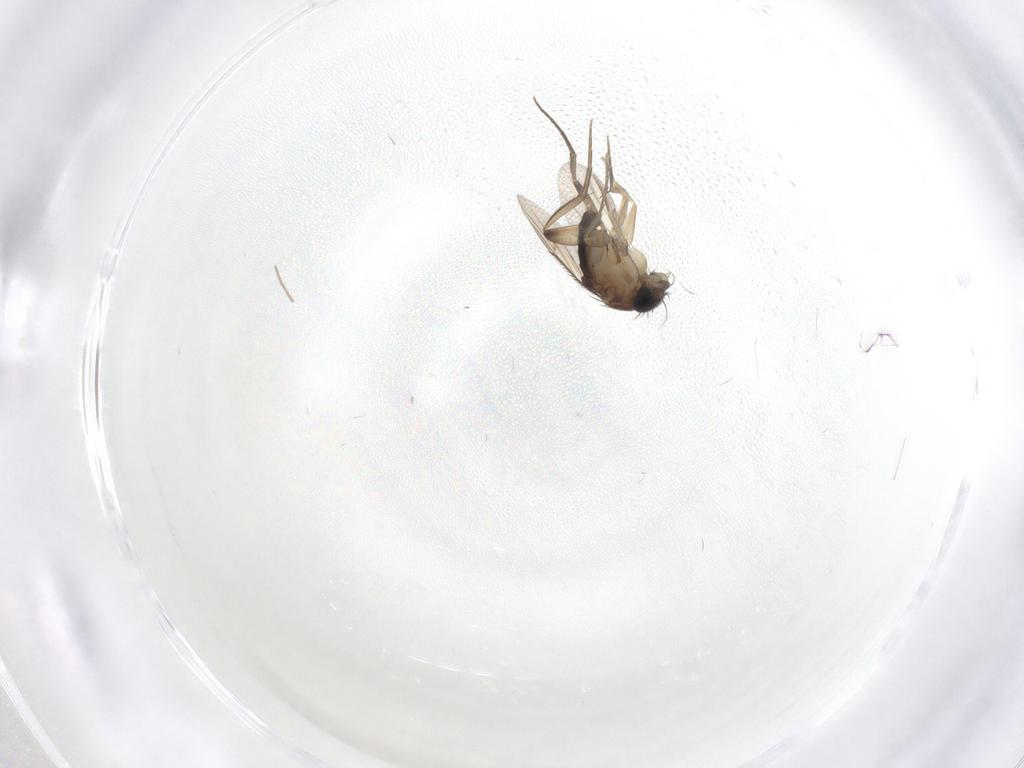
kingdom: Animalia
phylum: Arthropoda
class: Insecta
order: Diptera
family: Phoridae
